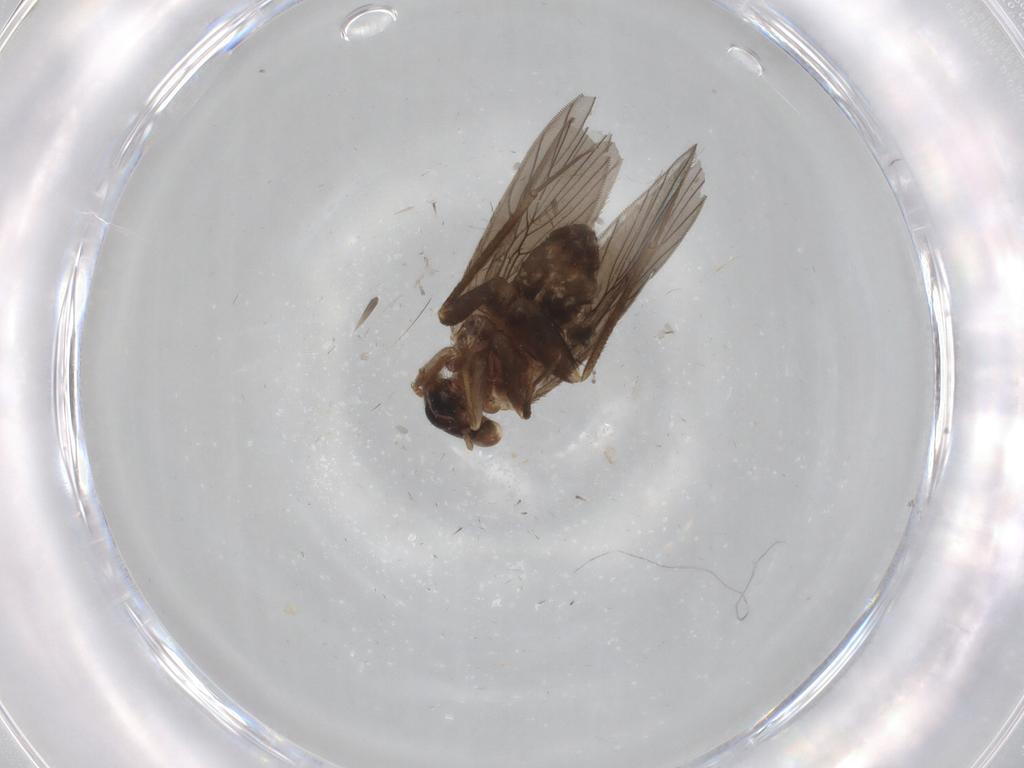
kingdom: Animalia
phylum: Arthropoda
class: Insecta
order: Psocodea
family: Lepidopsocidae
